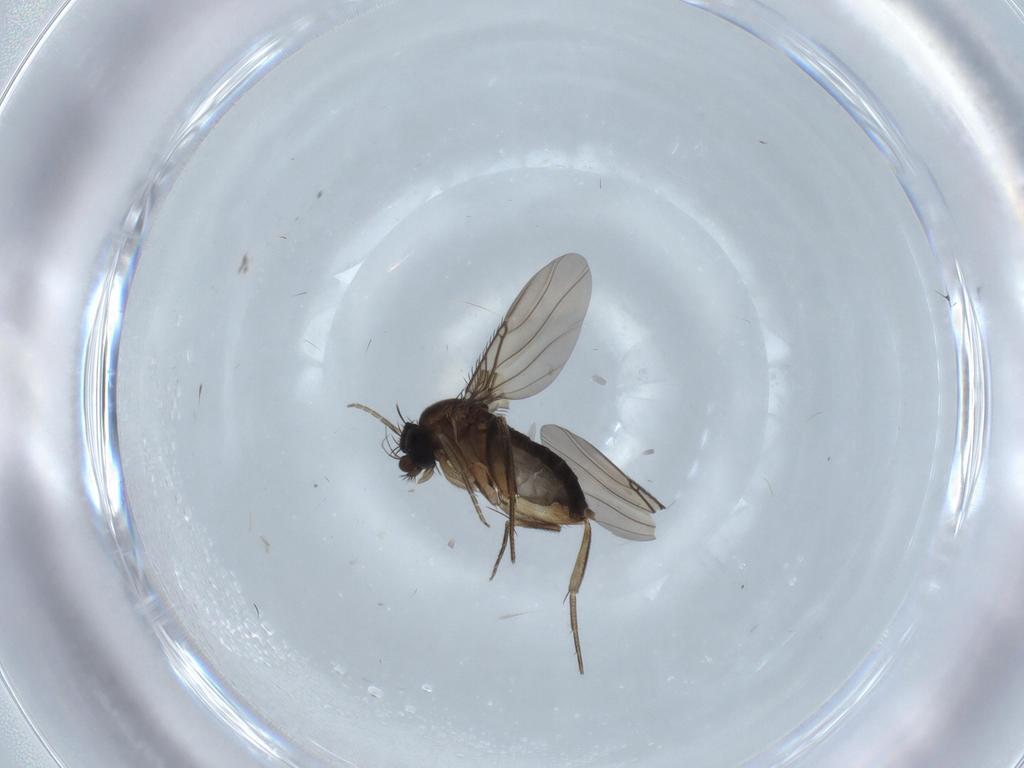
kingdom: Animalia
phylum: Arthropoda
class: Insecta
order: Diptera
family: Phoridae
